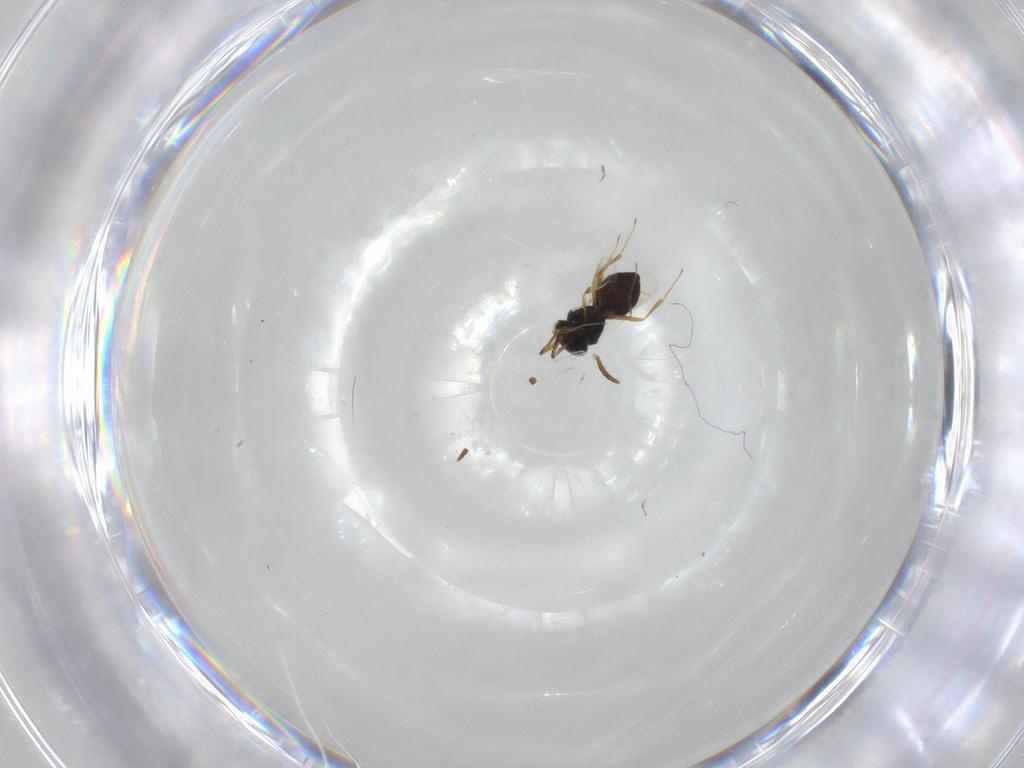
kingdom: Animalia
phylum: Arthropoda
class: Insecta
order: Hymenoptera
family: Scelionidae
